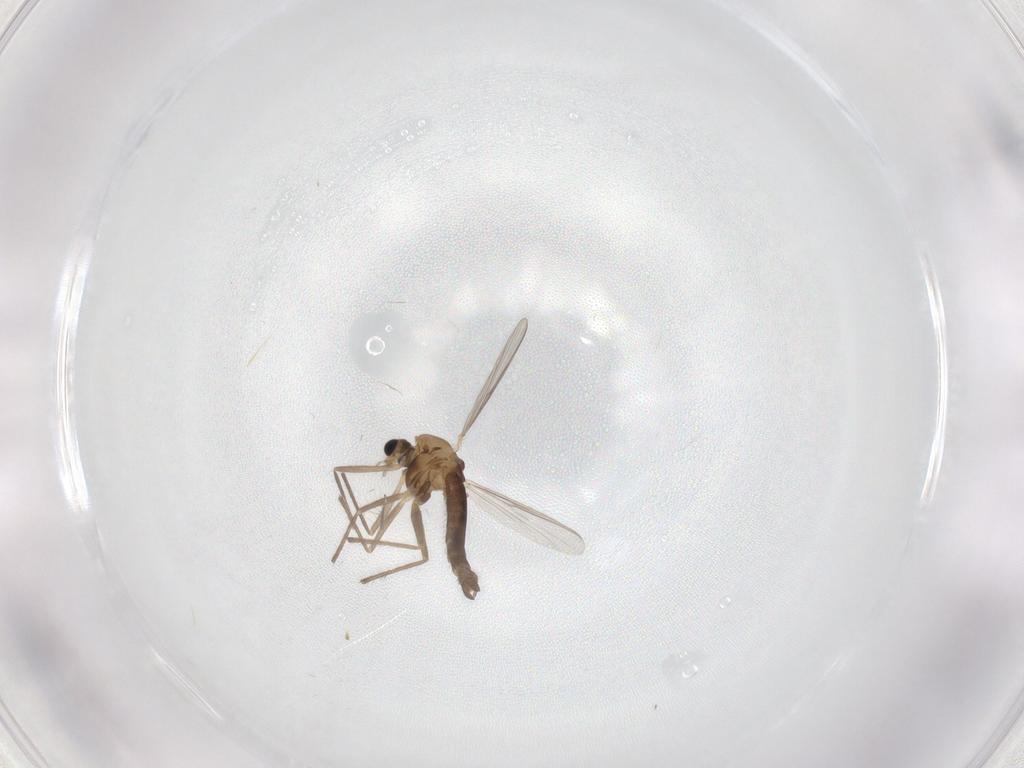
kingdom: Animalia
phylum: Arthropoda
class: Insecta
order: Diptera
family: Chironomidae
